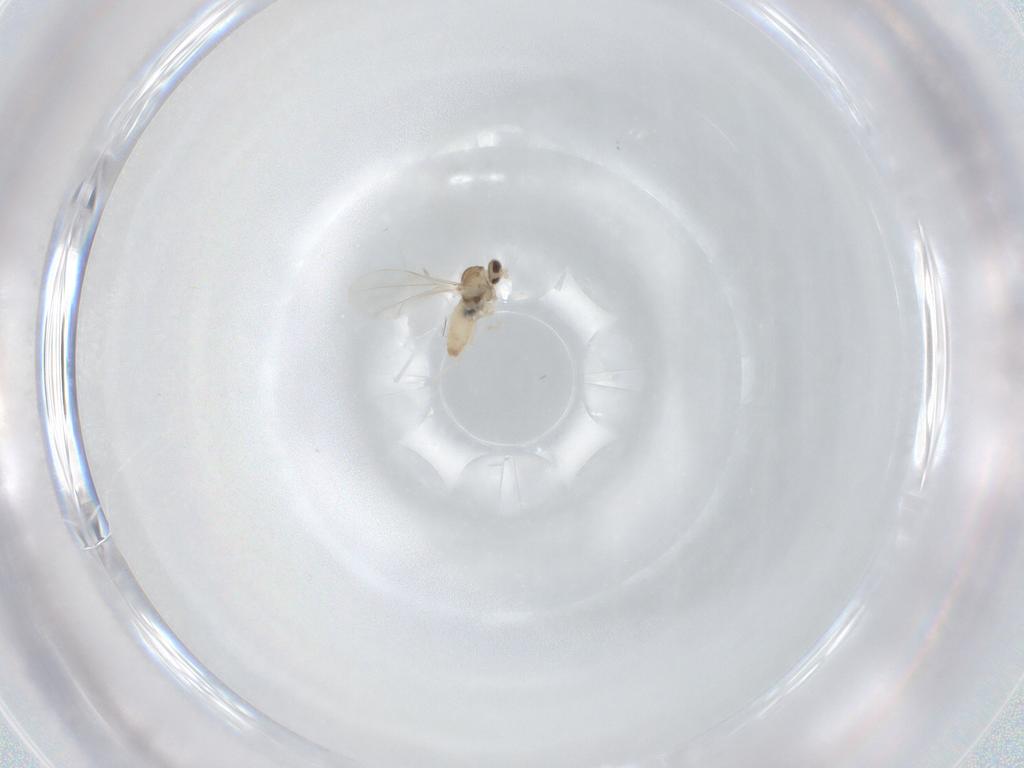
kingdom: Animalia
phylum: Arthropoda
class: Insecta
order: Diptera
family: Cecidomyiidae
